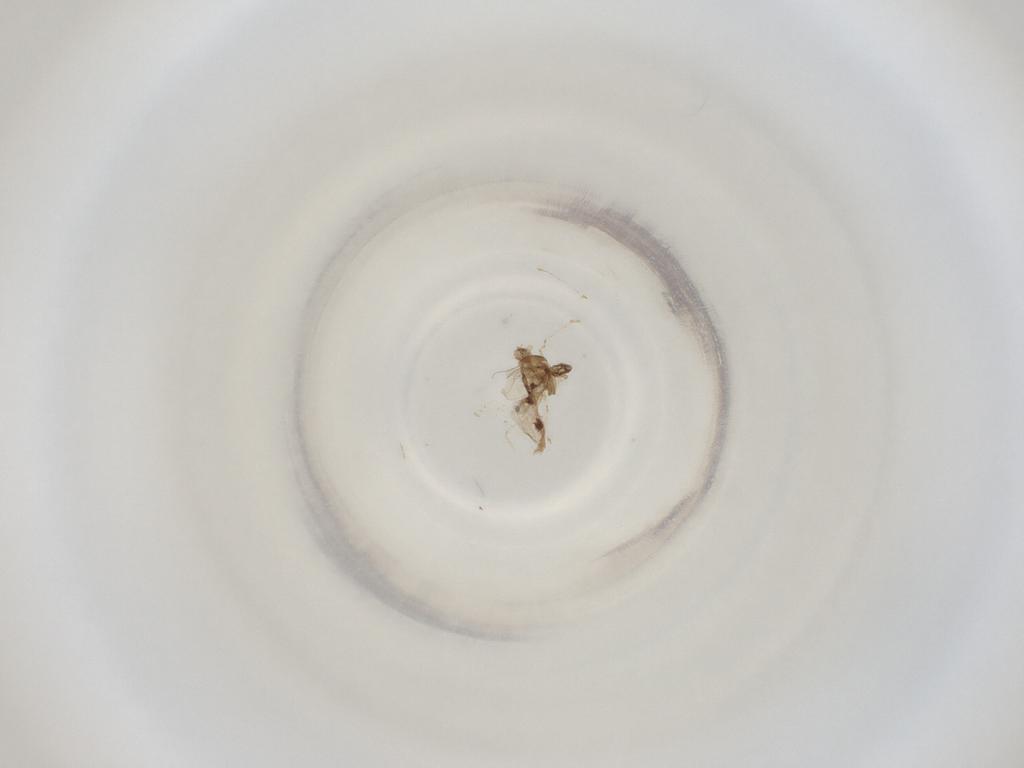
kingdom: Animalia
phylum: Arthropoda
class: Insecta
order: Diptera
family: Cecidomyiidae
